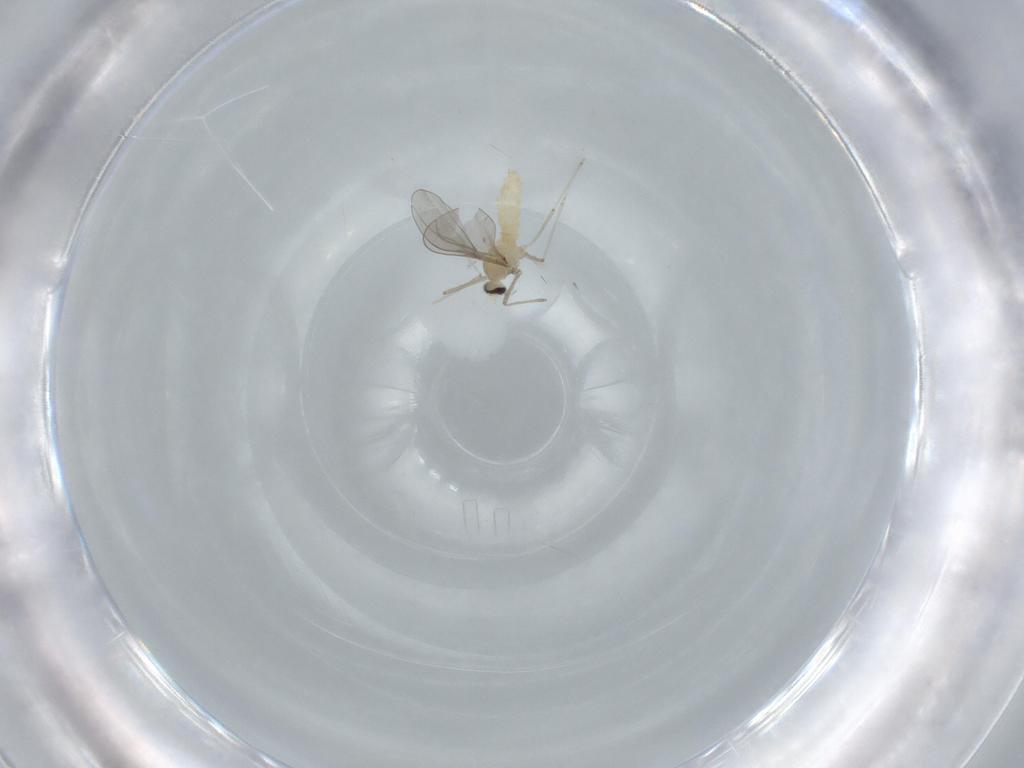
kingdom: Animalia
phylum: Arthropoda
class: Insecta
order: Diptera
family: Cecidomyiidae
